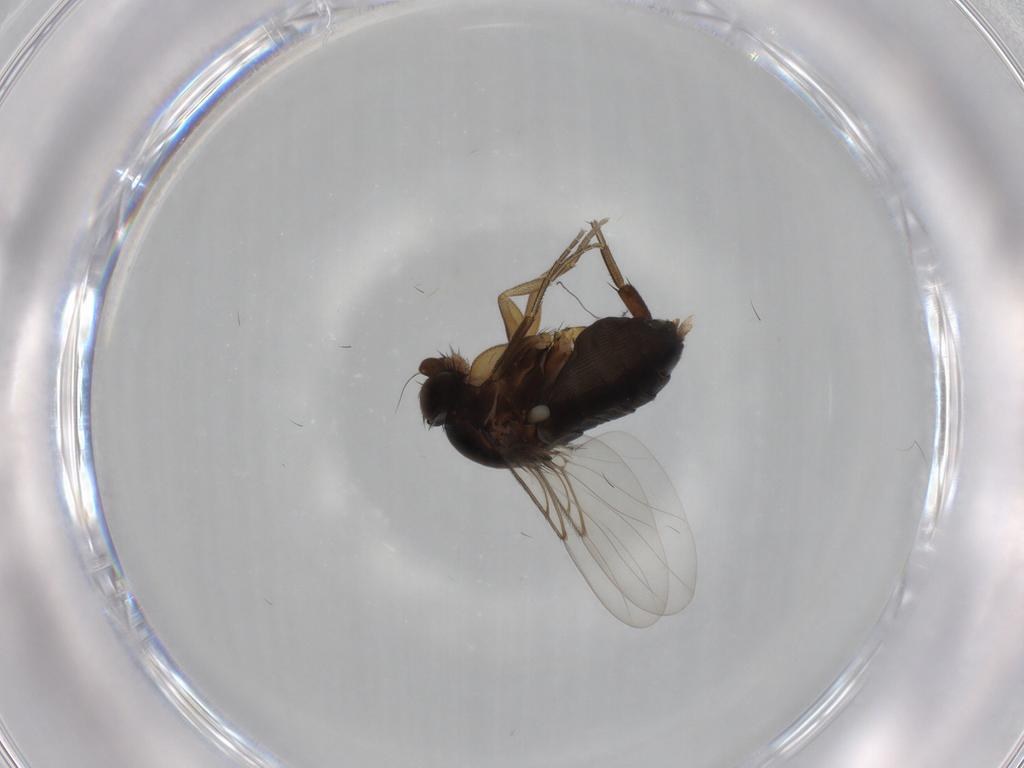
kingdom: Animalia
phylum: Arthropoda
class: Insecta
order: Diptera
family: Phoridae
